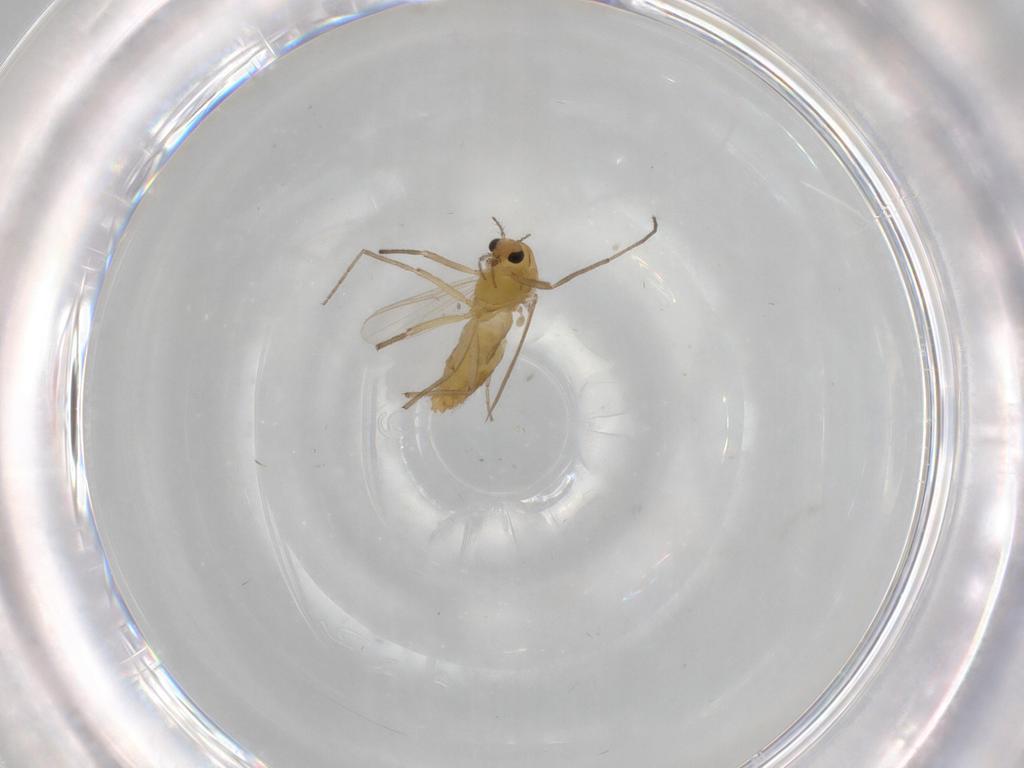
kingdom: Animalia
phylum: Arthropoda
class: Insecta
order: Diptera
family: Chironomidae
